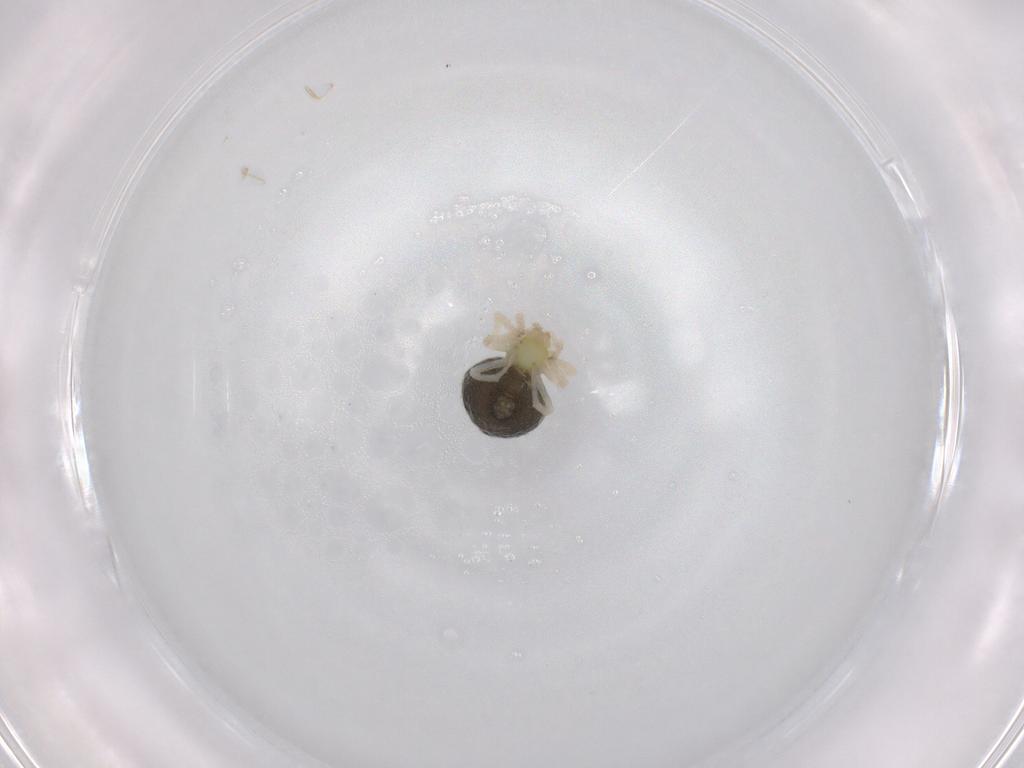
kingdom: Animalia
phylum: Arthropoda
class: Arachnida
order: Araneae
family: Theridiidae
